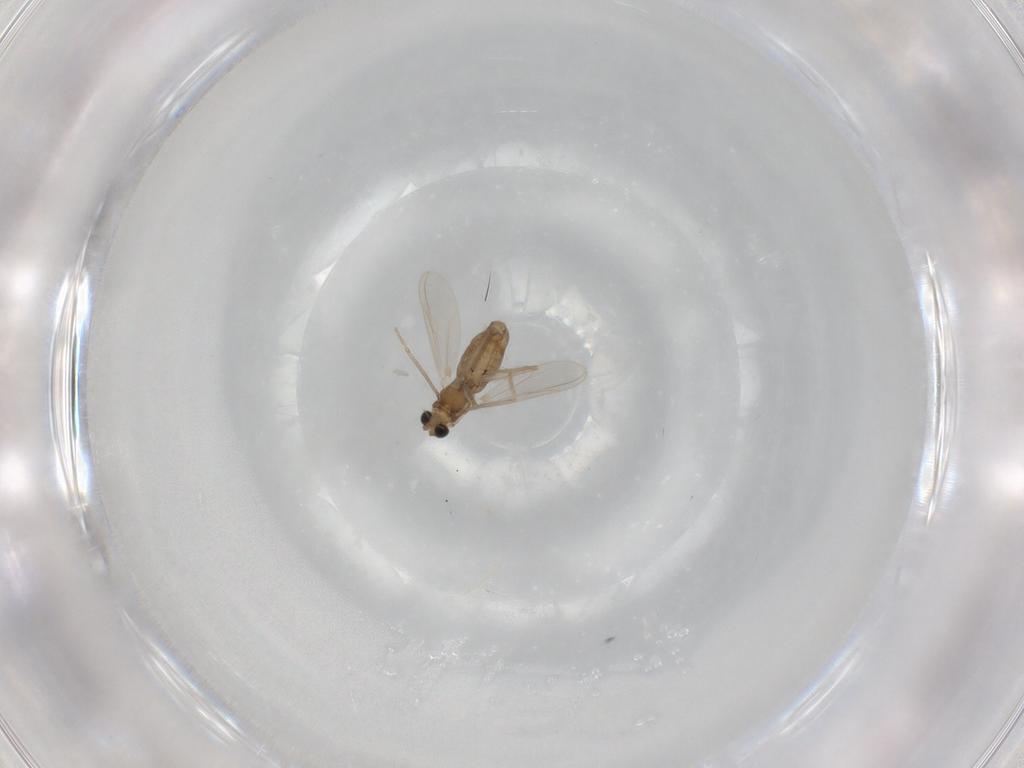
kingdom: Animalia
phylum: Arthropoda
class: Insecta
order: Diptera
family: Chironomidae
